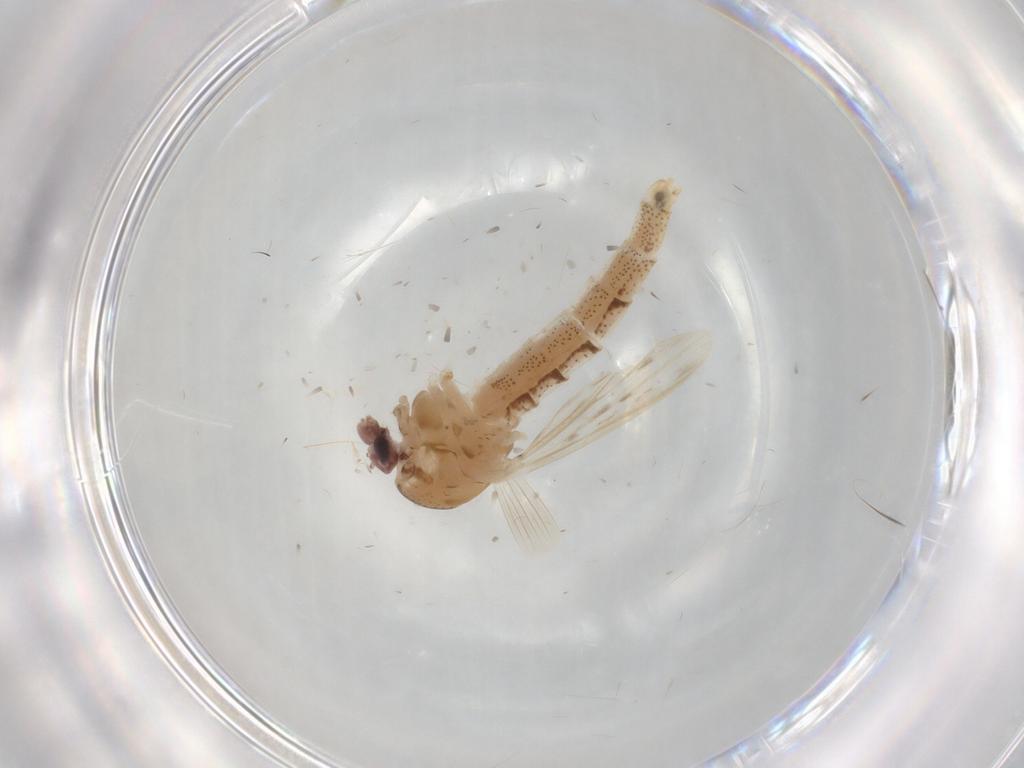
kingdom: Animalia
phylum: Arthropoda
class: Insecta
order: Diptera
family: Chaoboridae
